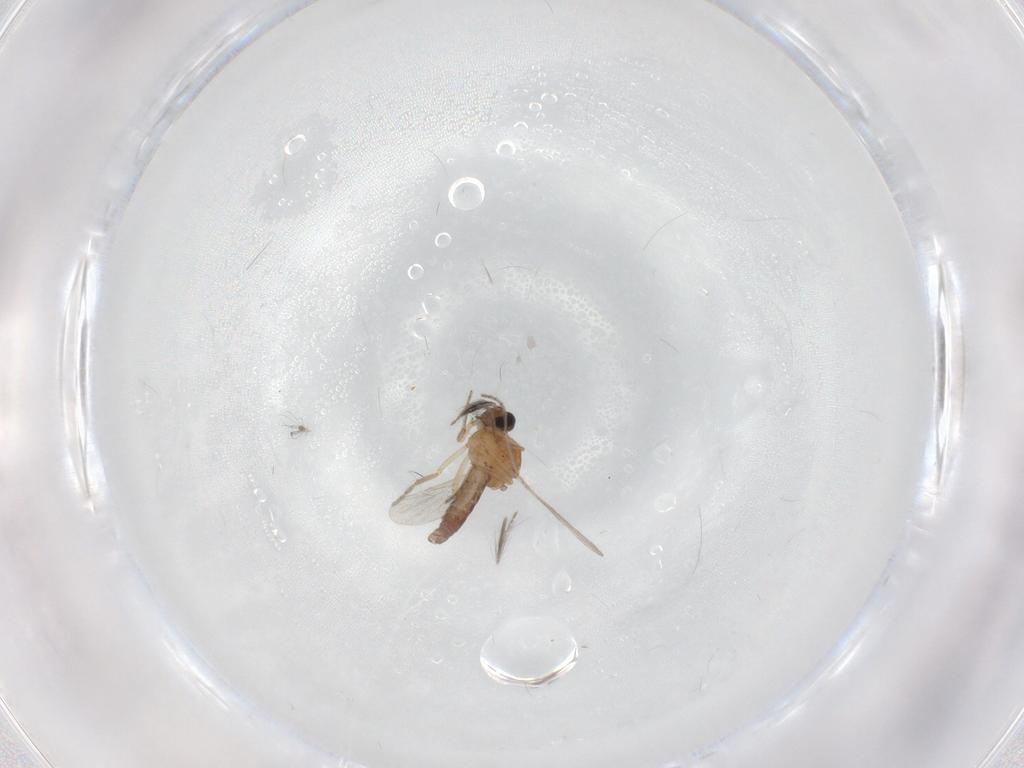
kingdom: Animalia
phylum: Arthropoda
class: Insecta
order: Diptera
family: Ceratopogonidae
